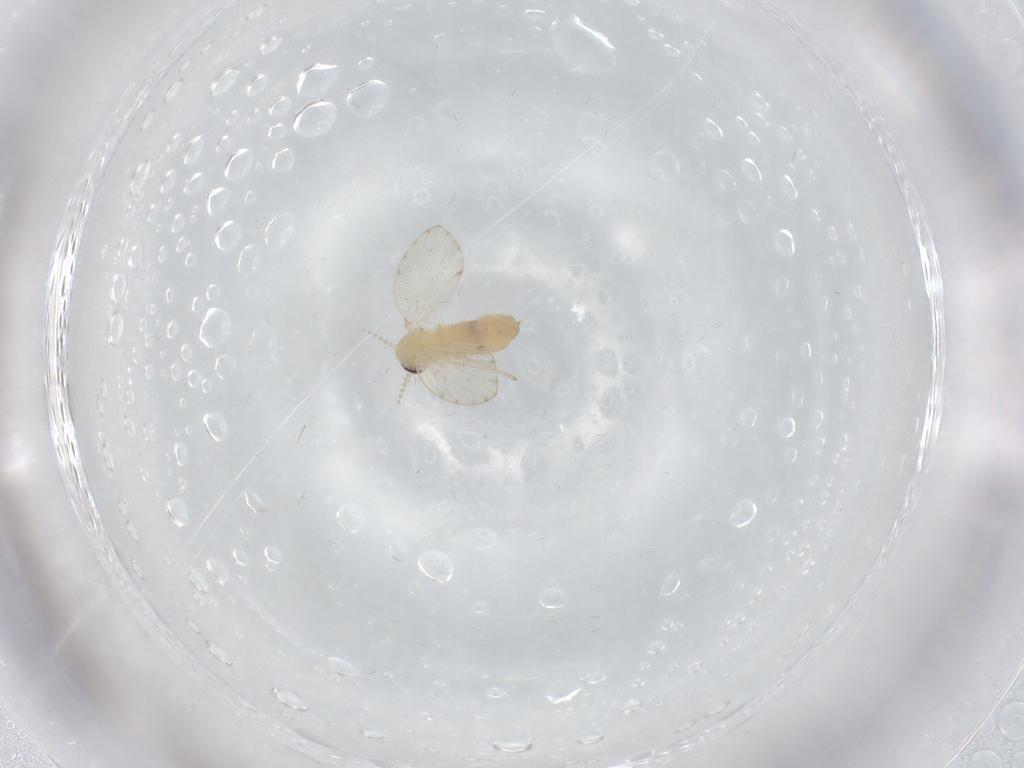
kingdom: Animalia
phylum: Arthropoda
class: Insecta
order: Diptera
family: Psychodidae
